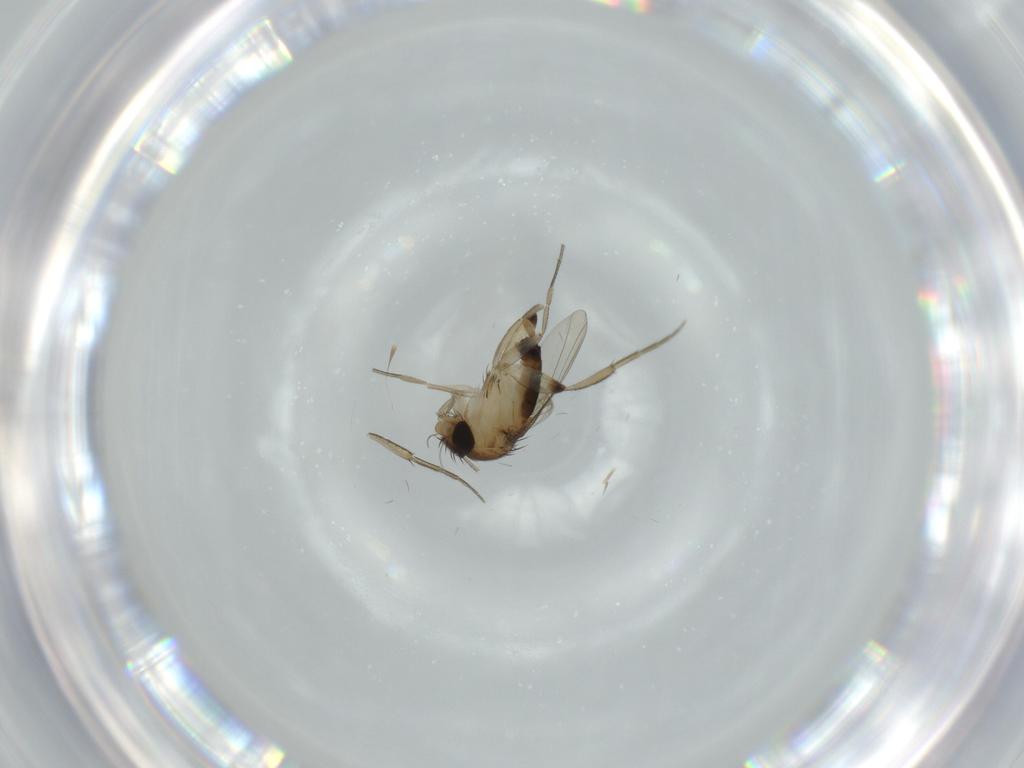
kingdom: Animalia
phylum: Arthropoda
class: Insecta
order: Diptera
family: Phoridae
